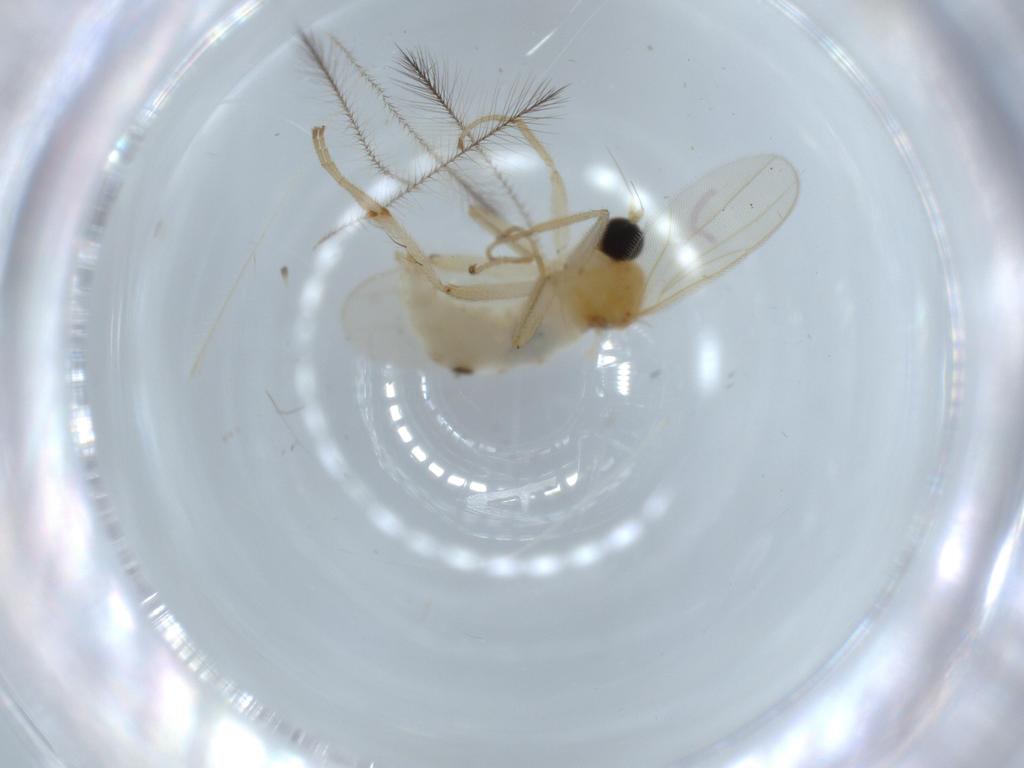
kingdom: Animalia
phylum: Arthropoda
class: Insecta
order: Diptera
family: Hybotidae
